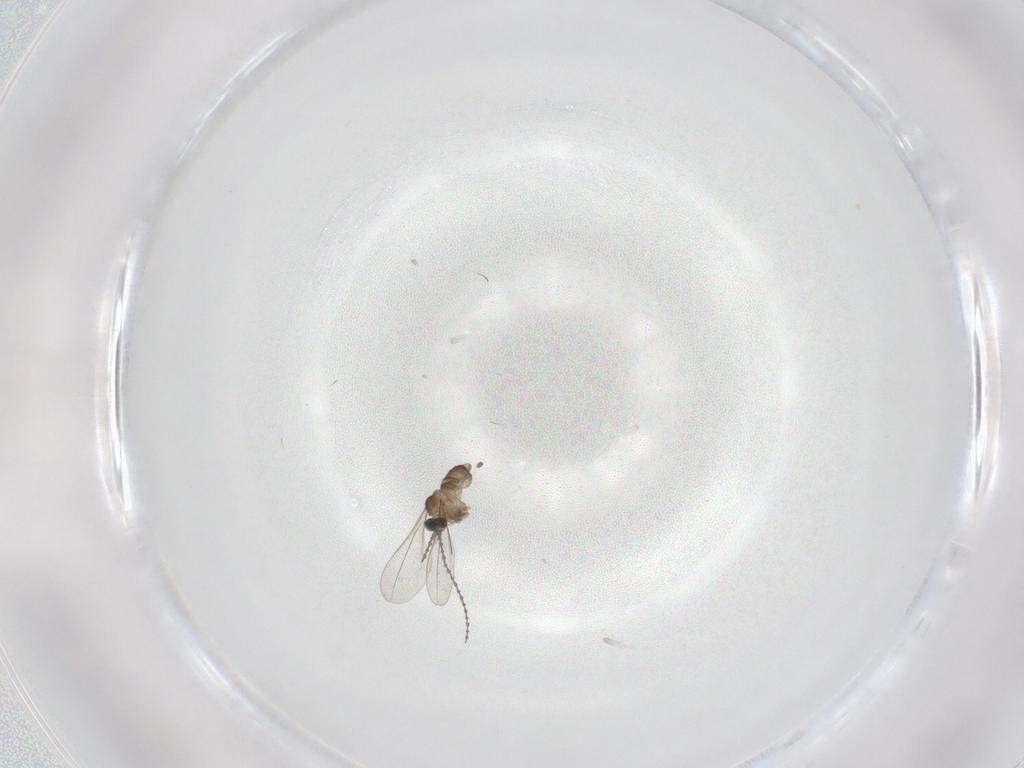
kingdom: Animalia
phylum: Arthropoda
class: Insecta
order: Diptera
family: Cecidomyiidae
